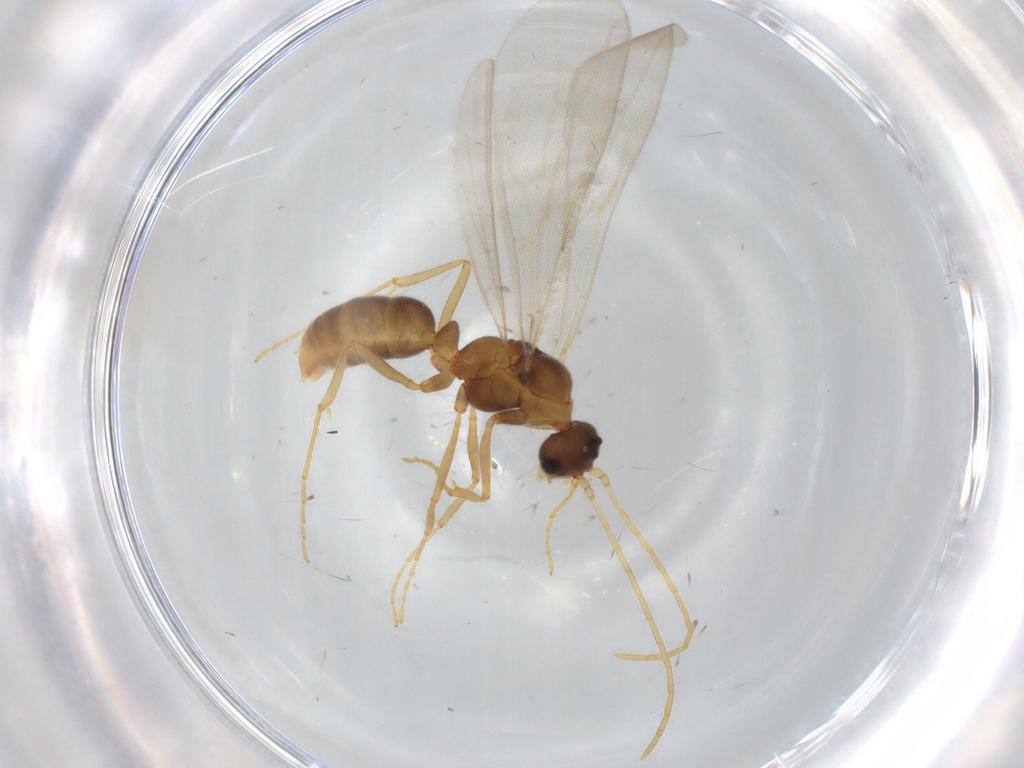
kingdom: Animalia
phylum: Arthropoda
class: Insecta
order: Hymenoptera
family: Formicidae
